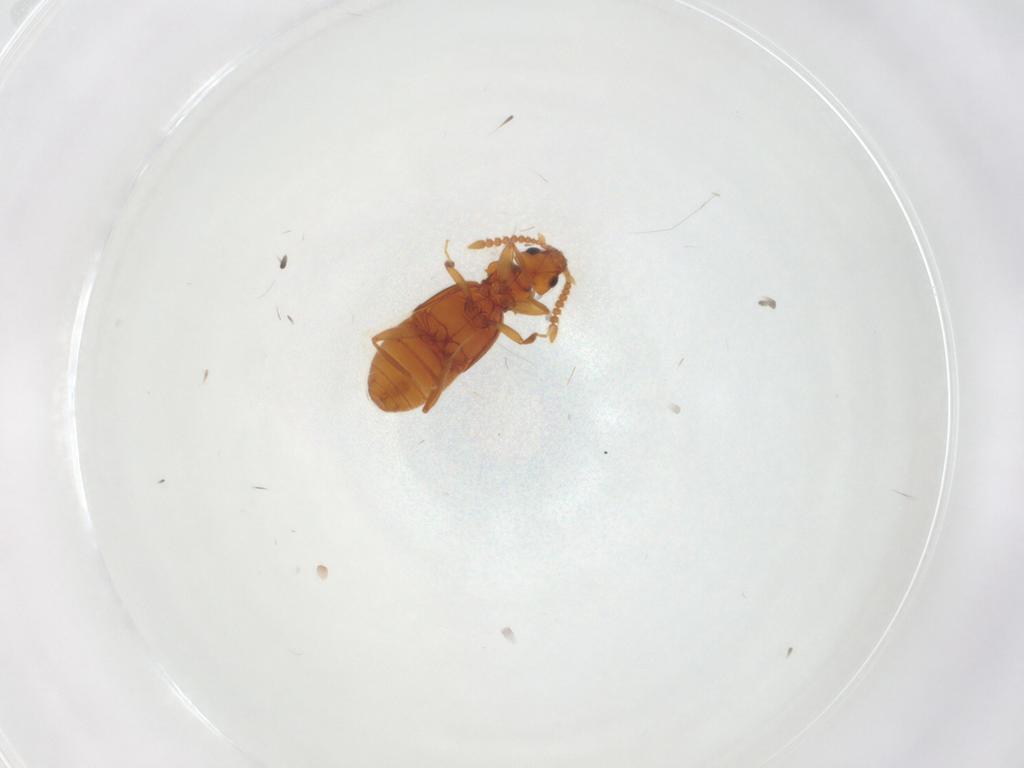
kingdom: Animalia
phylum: Arthropoda
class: Insecta
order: Coleoptera
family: Staphylinidae
